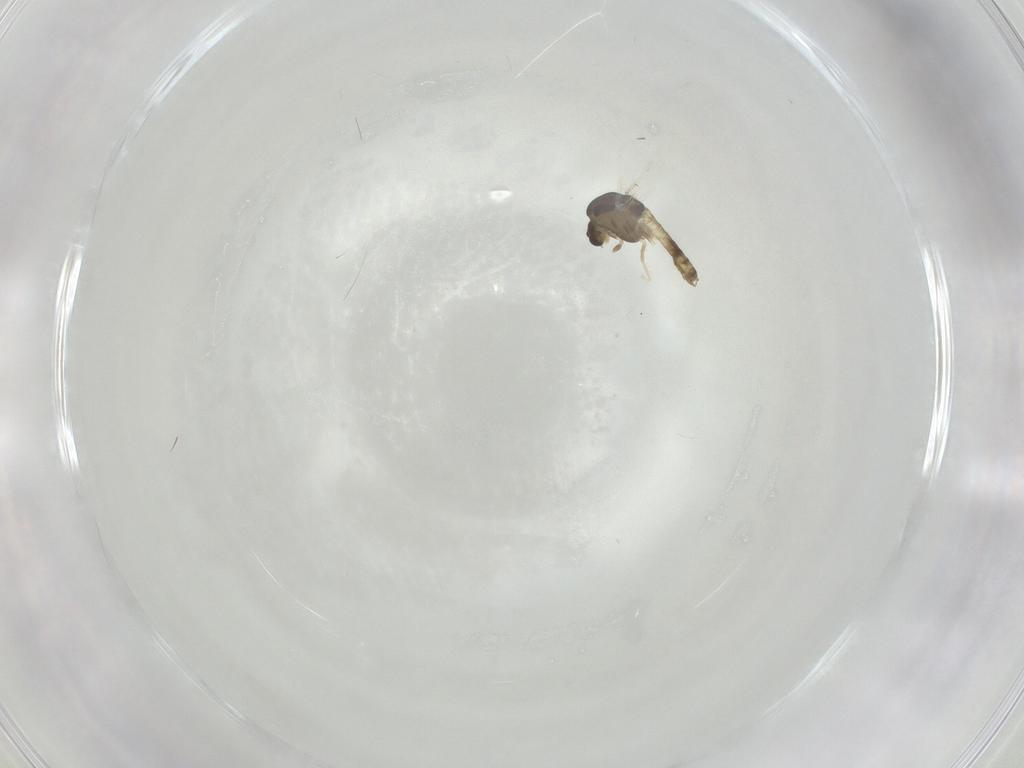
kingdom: Animalia
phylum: Arthropoda
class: Insecta
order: Diptera
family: Chironomidae
